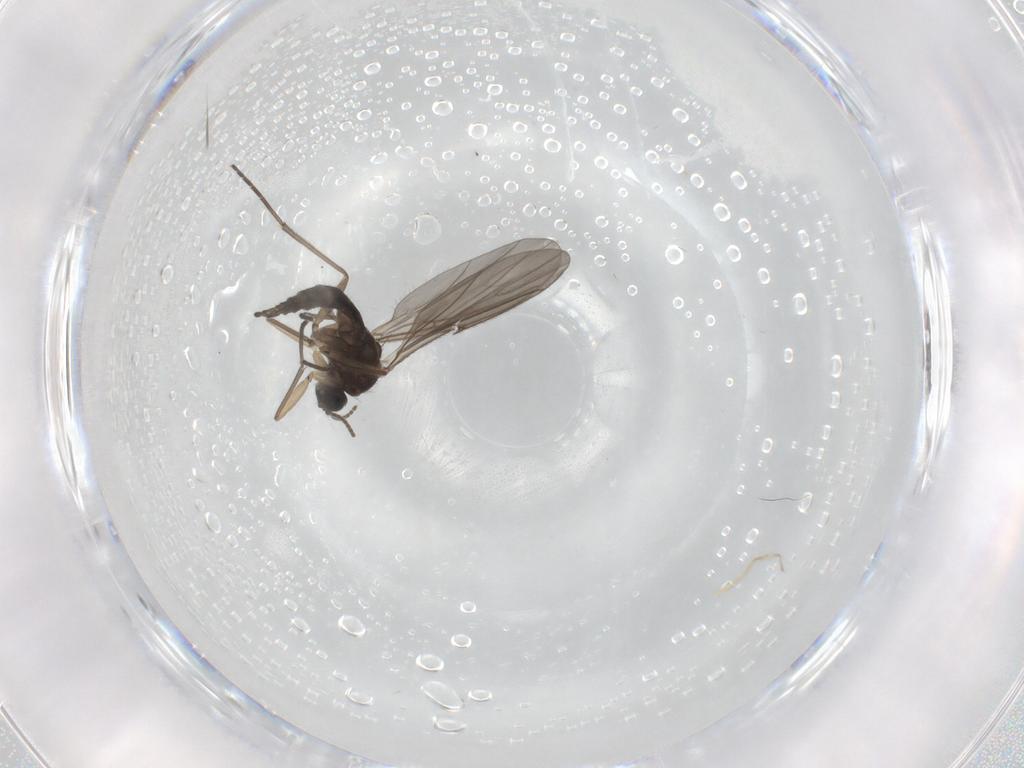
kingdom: Animalia
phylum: Arthropoda
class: Insecta
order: Diptera
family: Sciaridae
